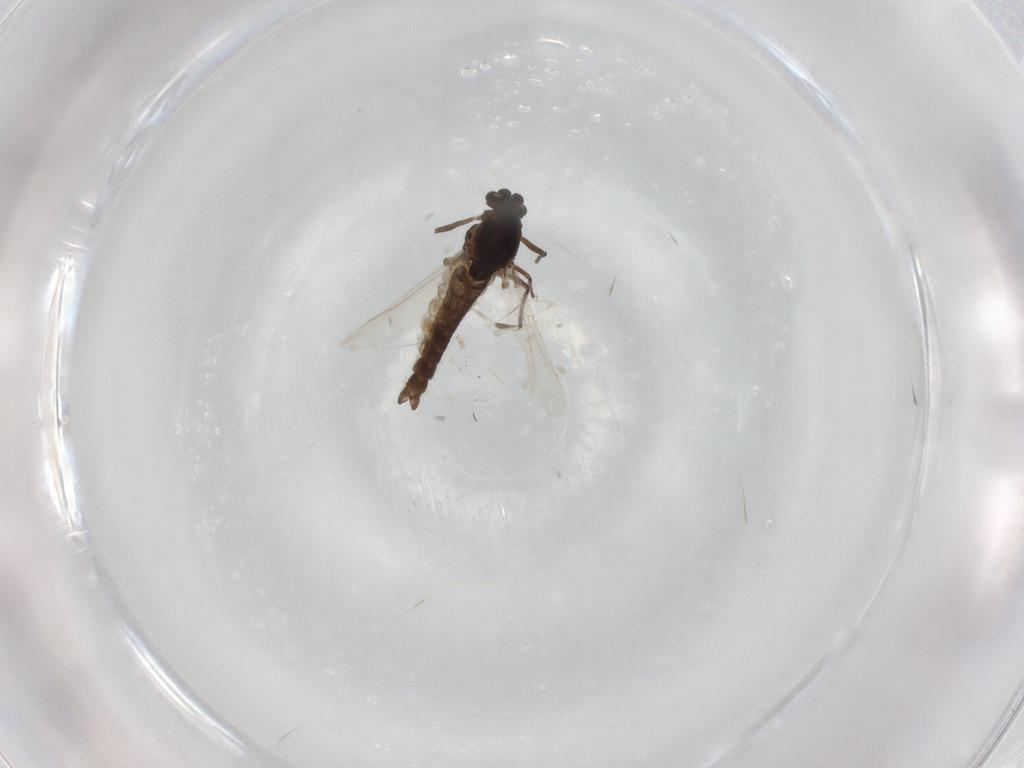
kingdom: Animalia
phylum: Arthropoda
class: Insecta
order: Diptera
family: Chironomidae
